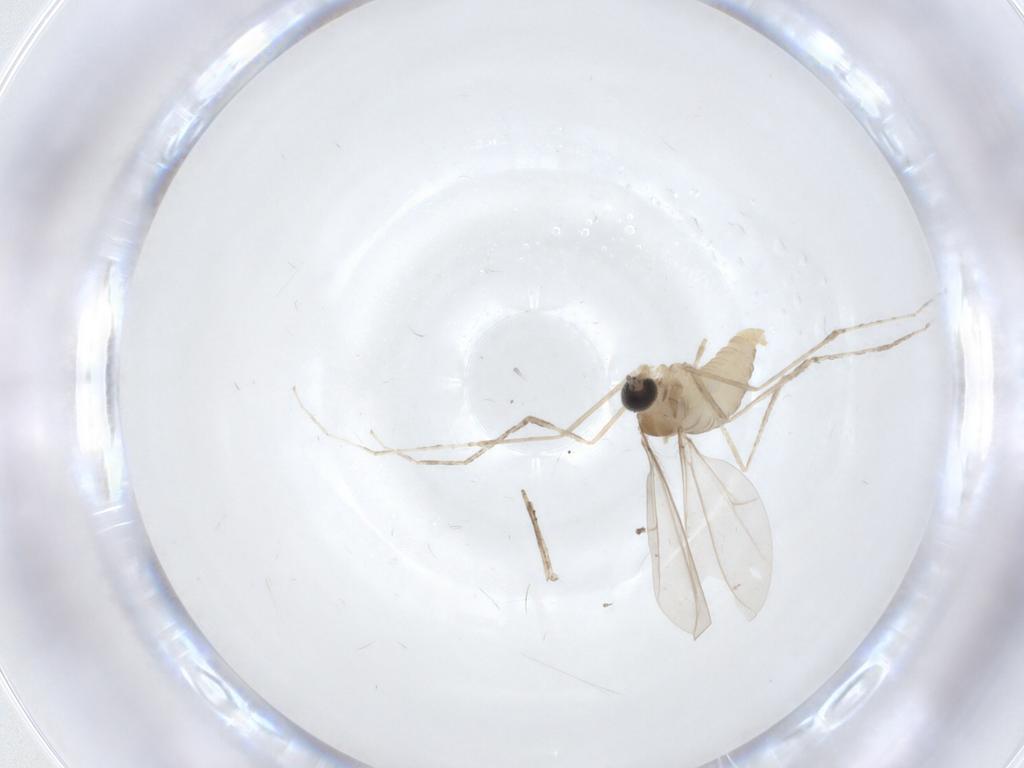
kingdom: Animalia
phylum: Arthropoda
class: Insecta
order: Diptera
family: Cecidomyiidae
